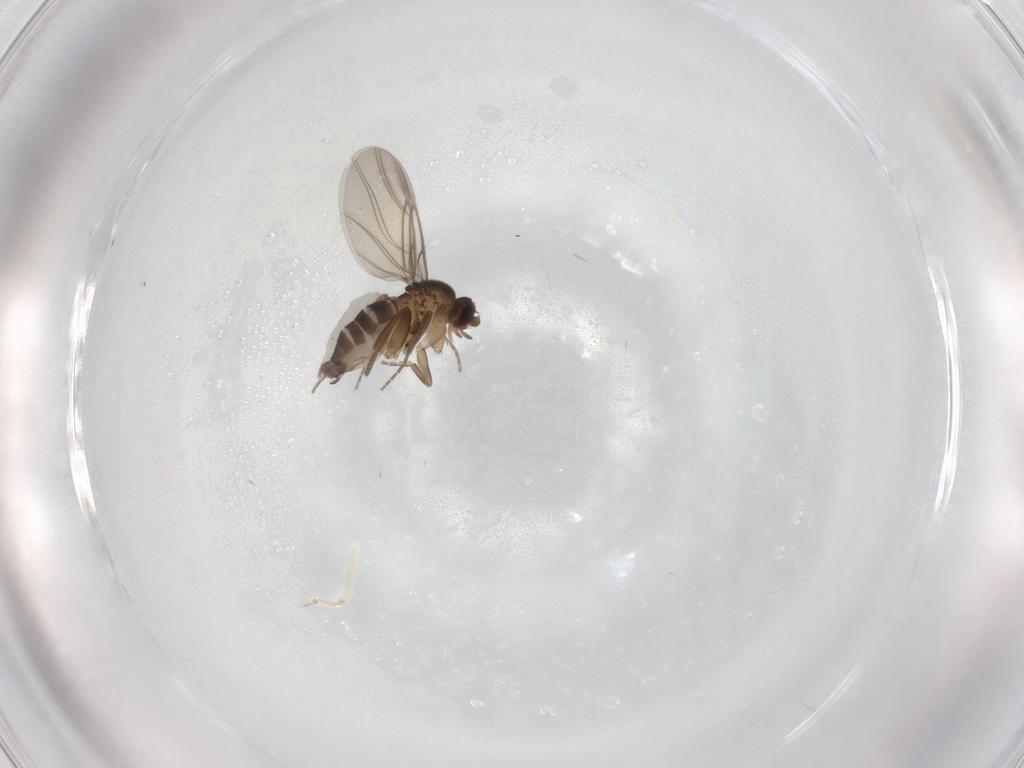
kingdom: Animalia
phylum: Arthropoda
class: Insecta
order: Diptera
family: Phoridae
